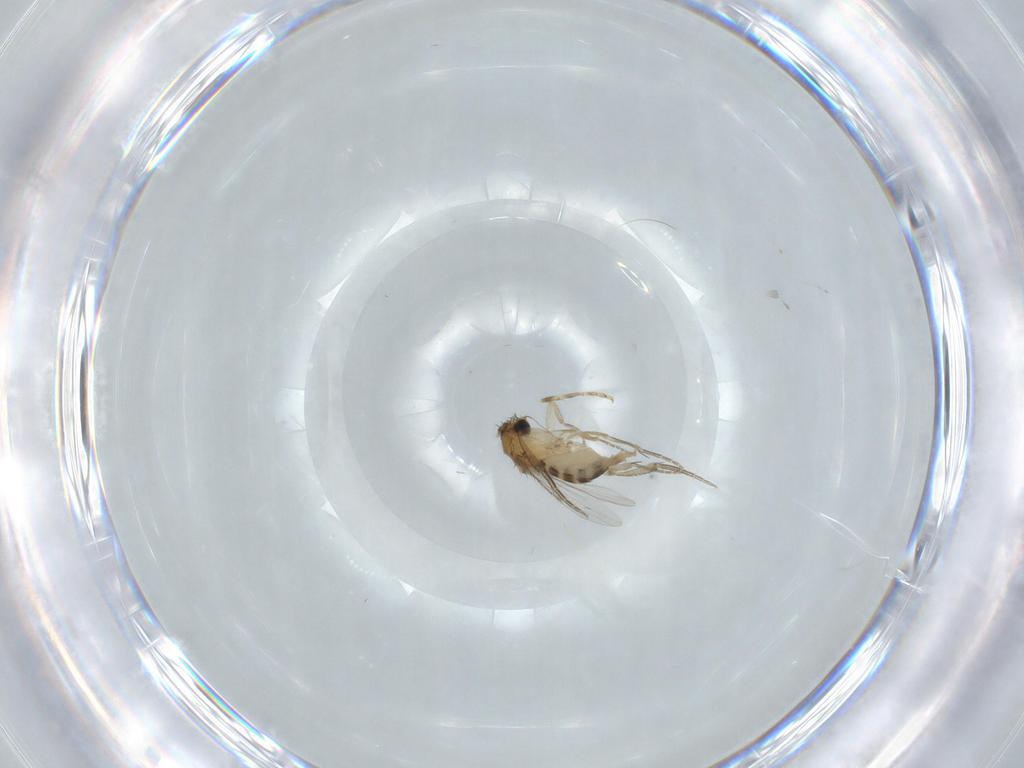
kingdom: Animalia
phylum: Arthropoda
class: Insecta
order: Diptera
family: Ceratopogonidae
